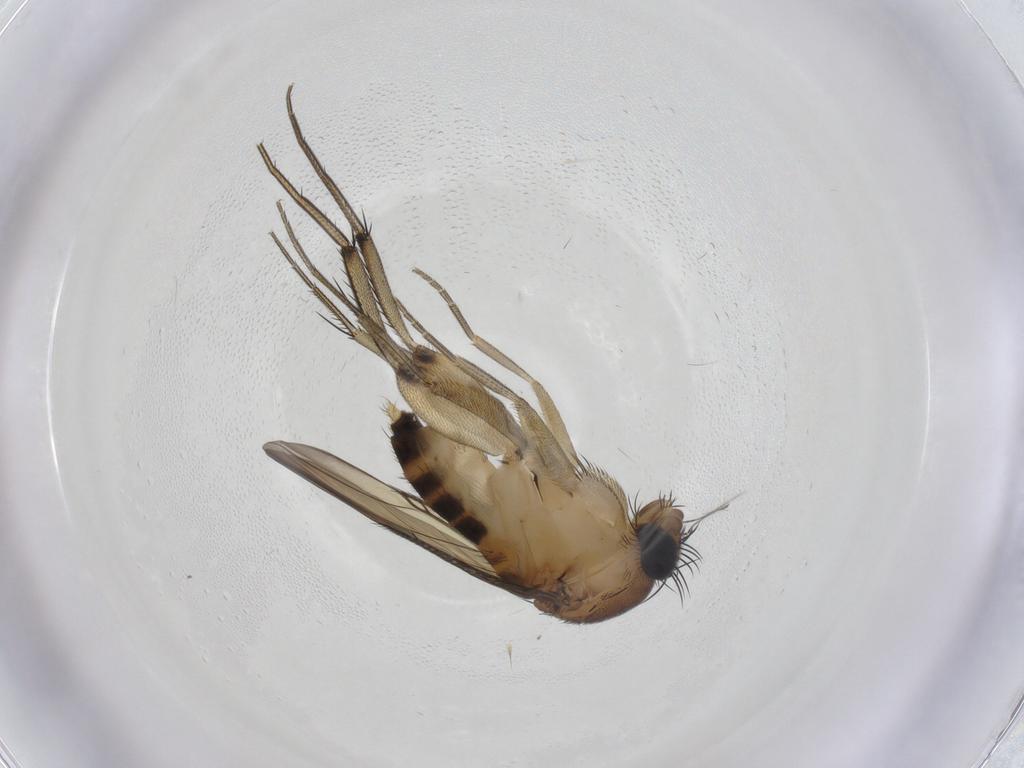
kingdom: Animalia
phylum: Arthropoda
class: Insecta
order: Diptera
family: Phoridae
